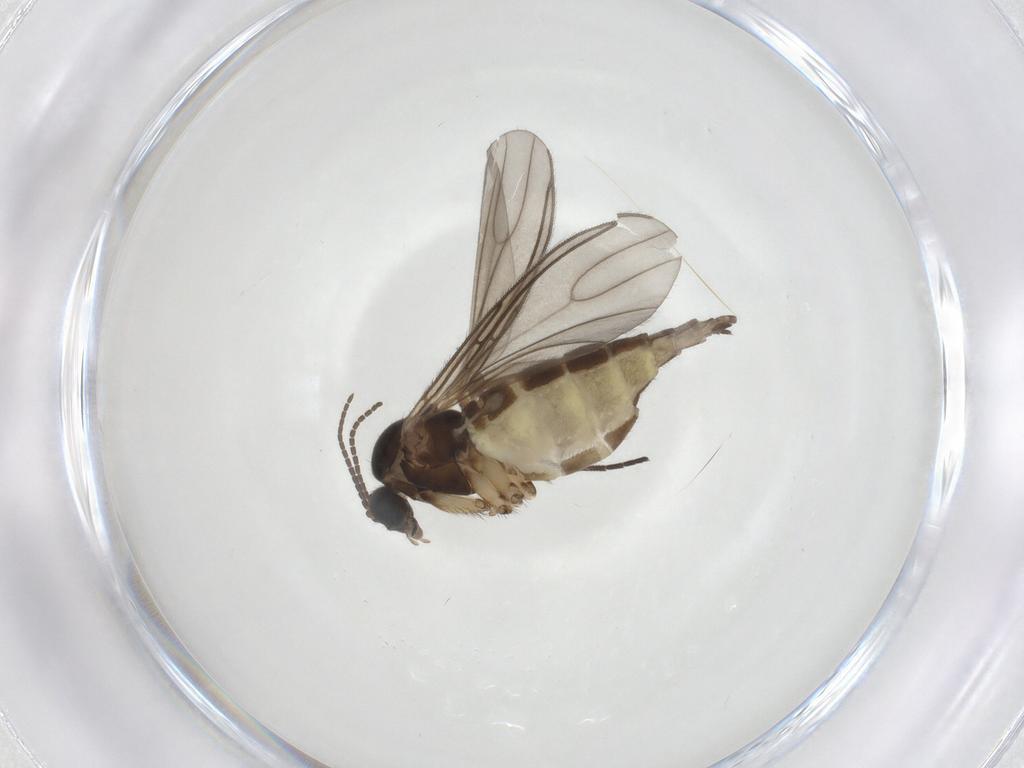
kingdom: Animalia
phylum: Arthropoda
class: Insecta
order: Diptera
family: Sciaridae
